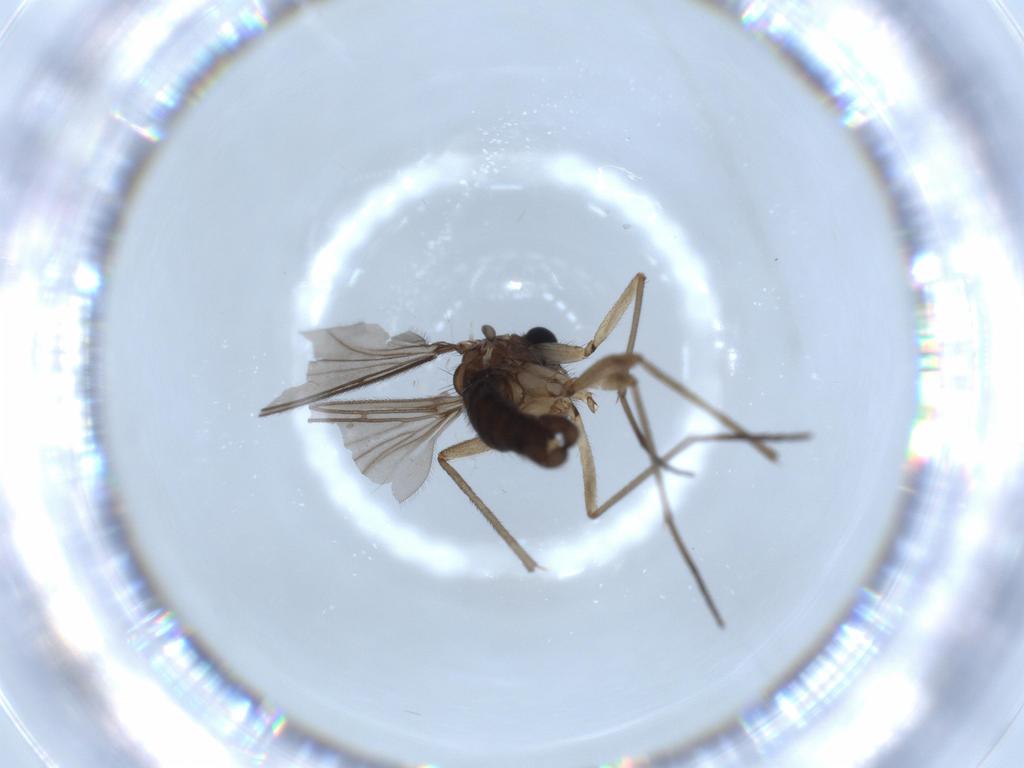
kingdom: Animalia
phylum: Arthropoda
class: Insecta
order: Diptera
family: Sciaridae
